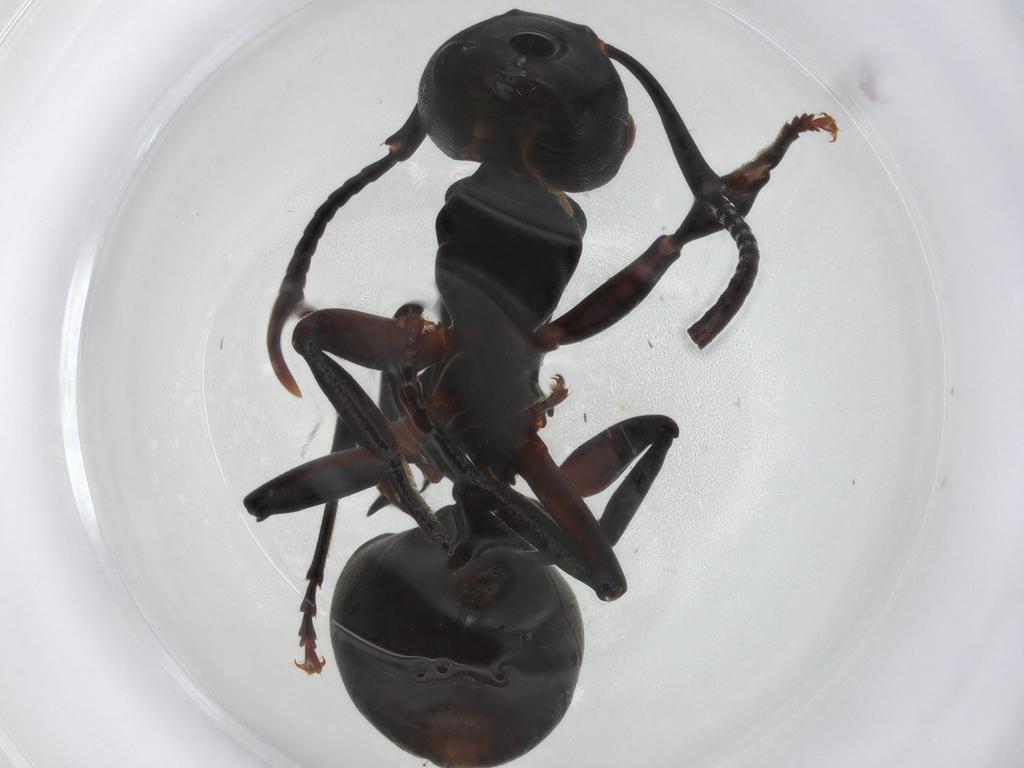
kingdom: Animalia
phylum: Arthropoda
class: Insecta
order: Hymenoptera
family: Formicidae
